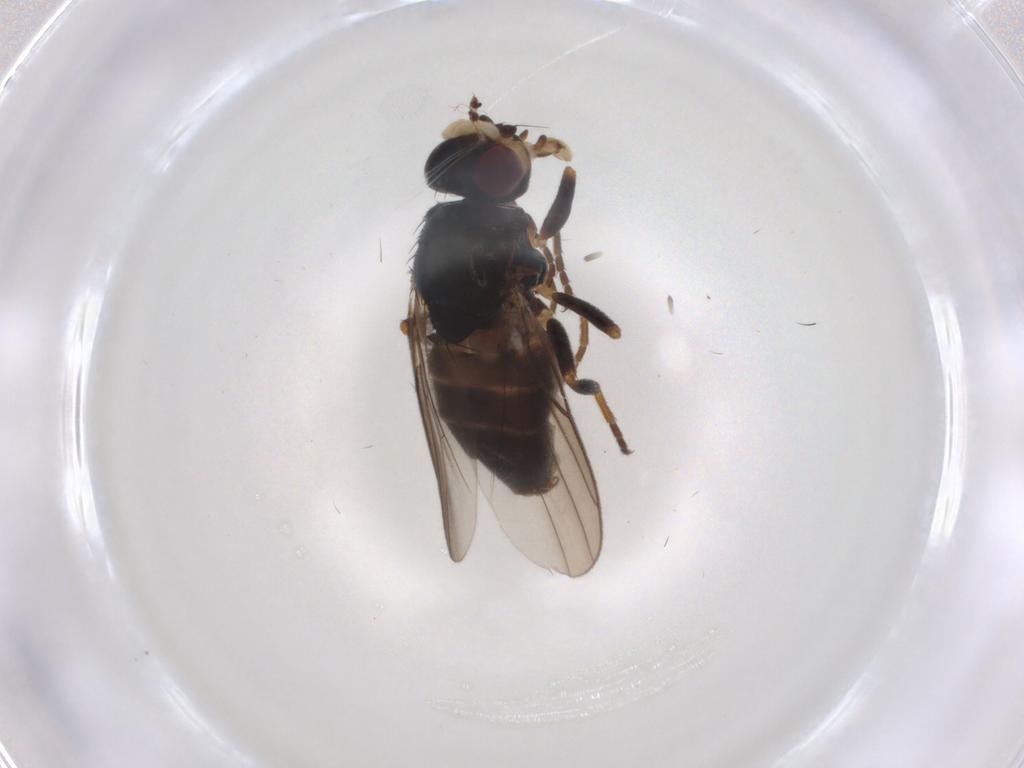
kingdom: Animalia
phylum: Arthropoda
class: Insecta
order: Diptera
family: Chloropidae
